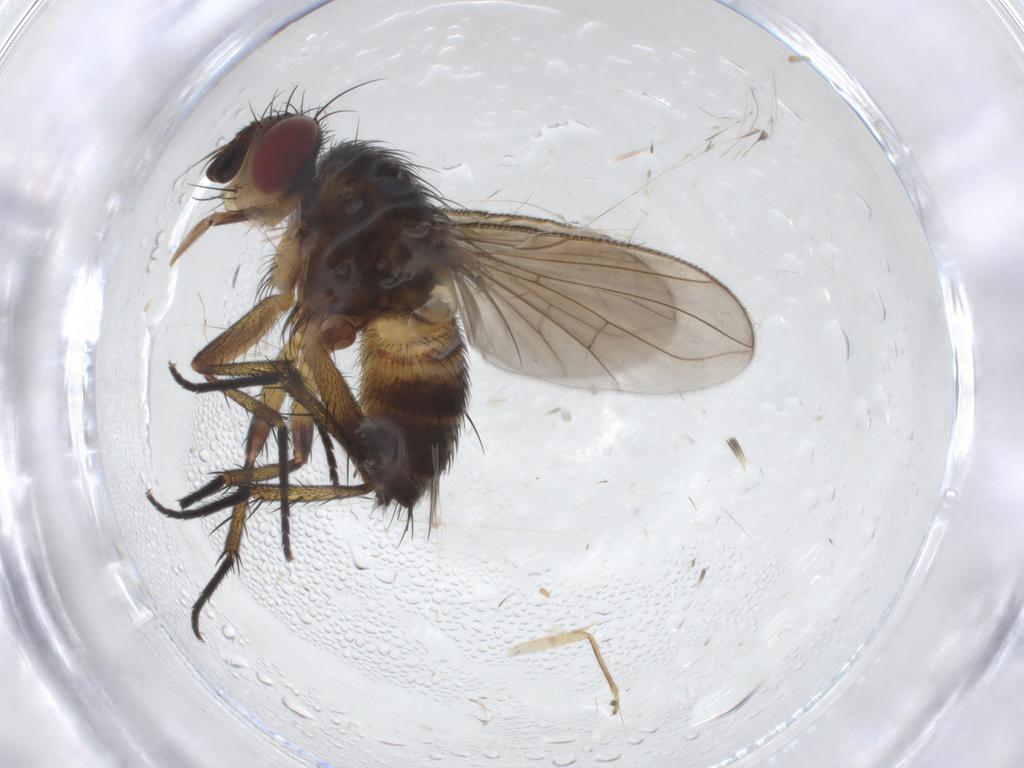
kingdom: Animalia
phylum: Arthropoda
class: Insecta
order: Diptera
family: Tachinidae
